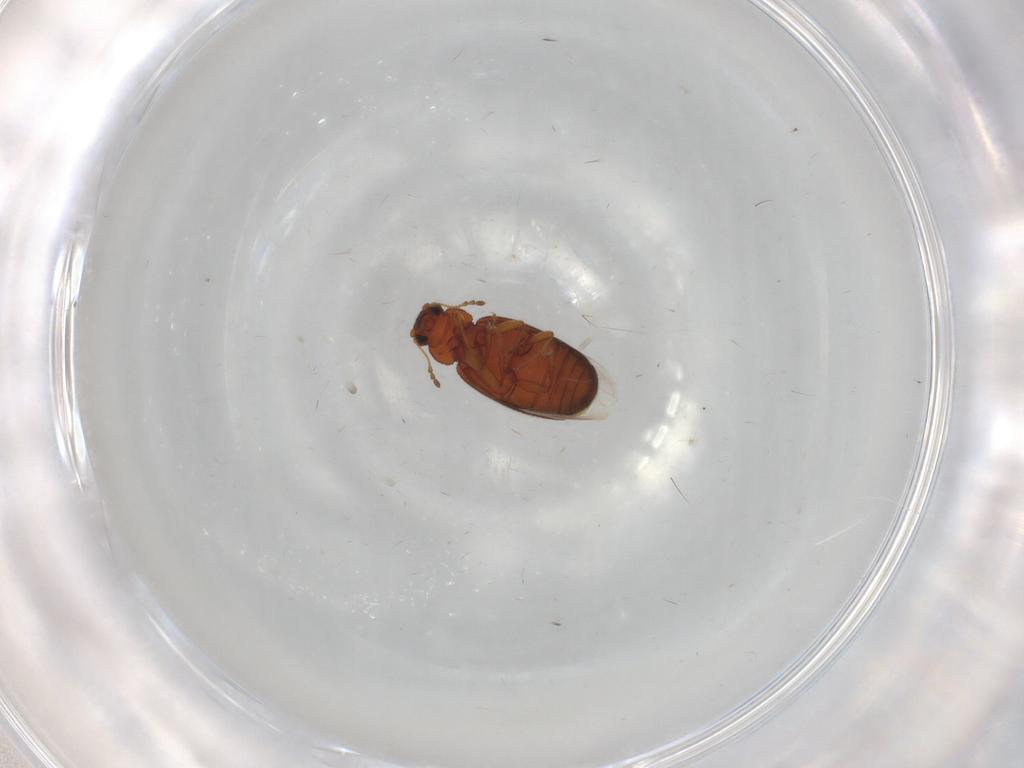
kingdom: Animalia
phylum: Arthropoda
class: Insecta
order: Coleoptera
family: Latridiidae
